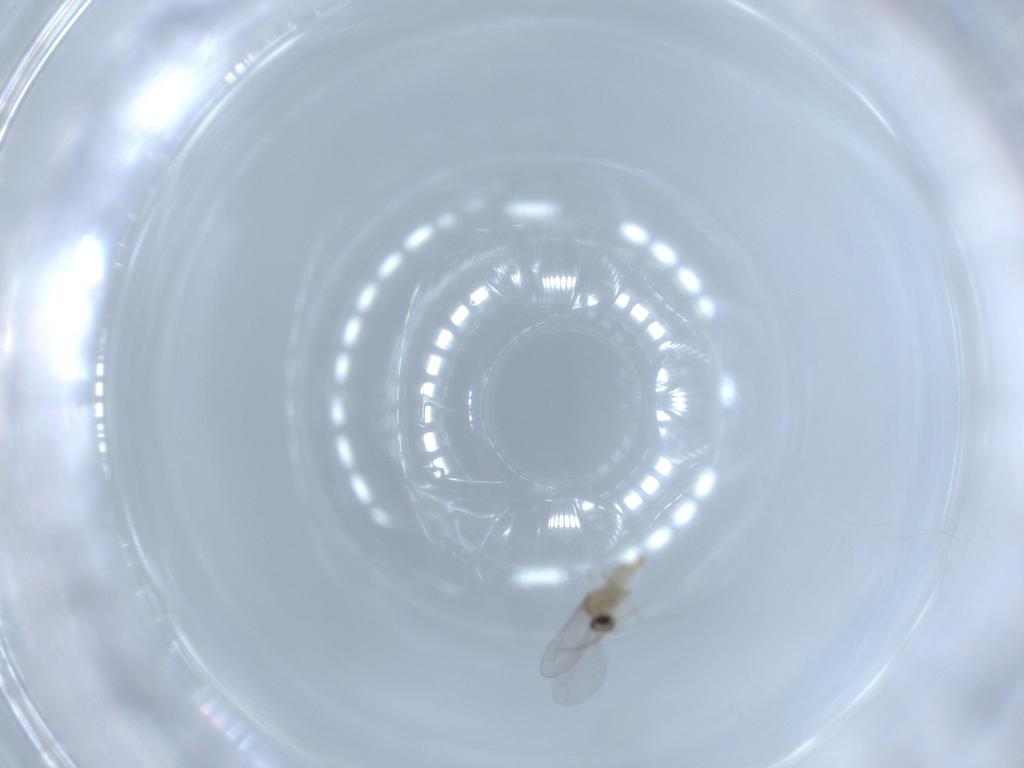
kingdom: Animalia
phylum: Arthropoda
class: Insecta
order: Diptera
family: Cecidomyiidae
